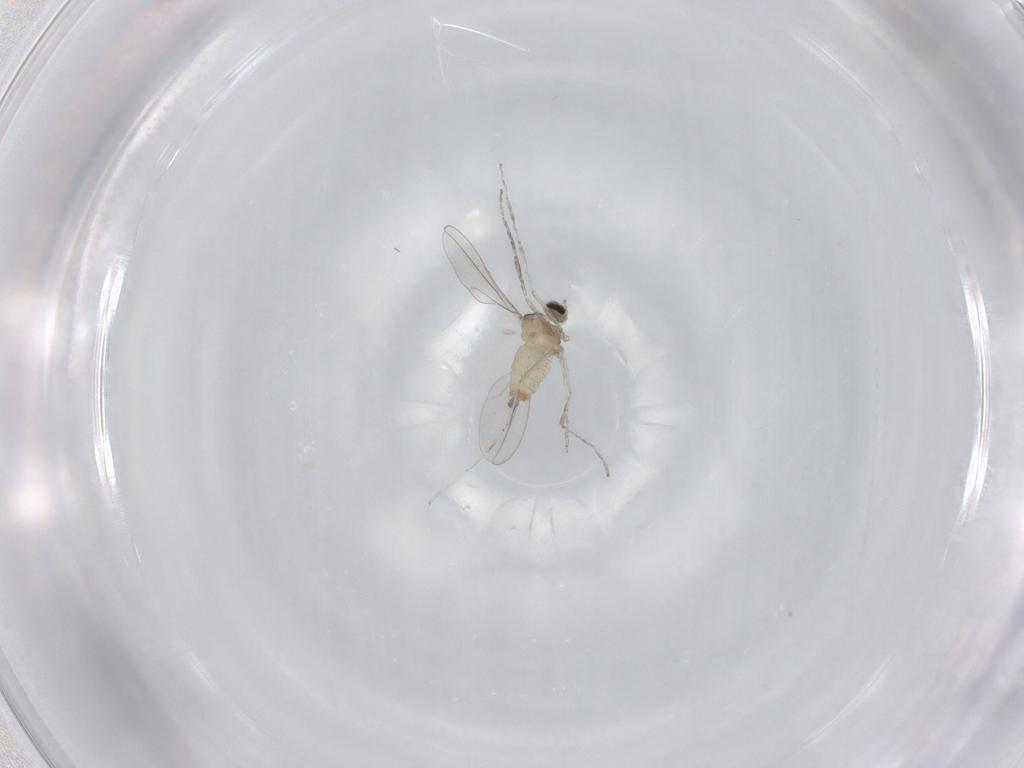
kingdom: Animalia
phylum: Arthropoda
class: Insecta
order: Diptera
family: Cecidomyiidae
